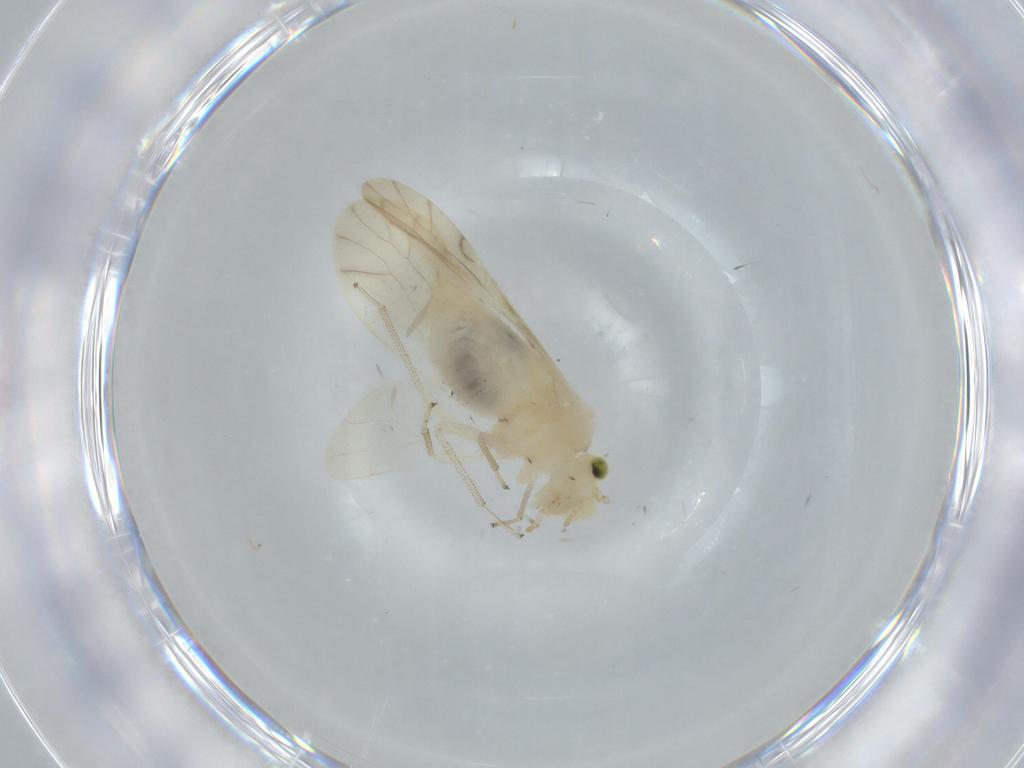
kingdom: Animalia
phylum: Arthropoda
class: Insecta
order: Psocodea
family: Caeciliusidae
